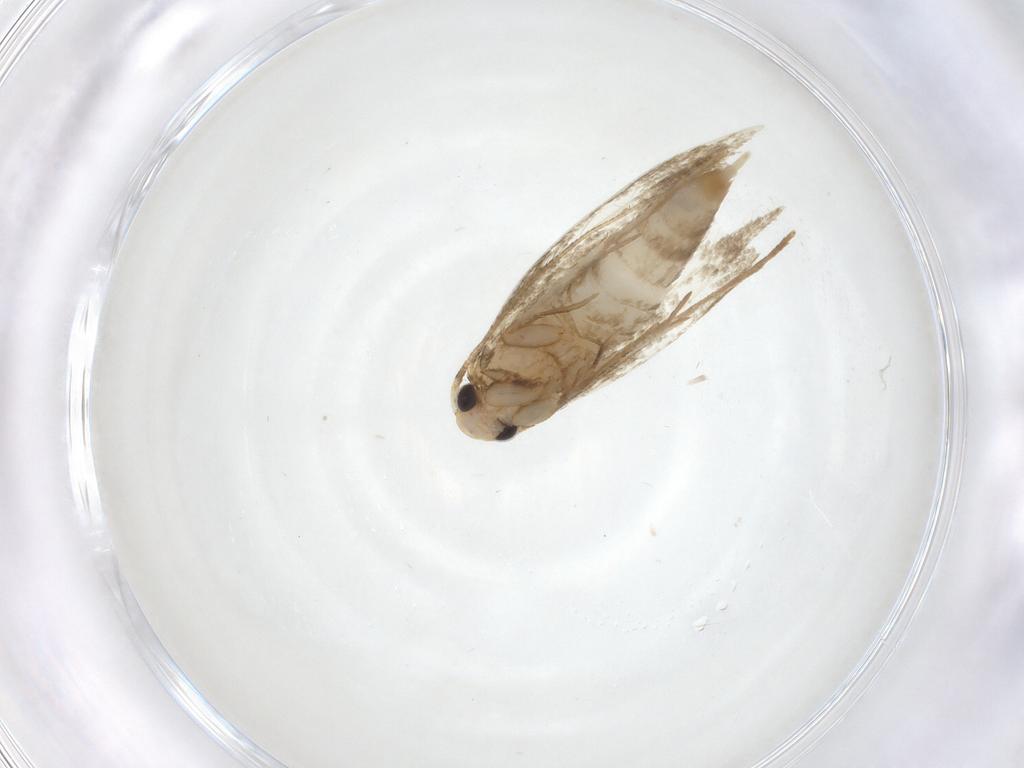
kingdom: Animalia
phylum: Arthropoda
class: Insecta
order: Lepidoptera
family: Tineidae
